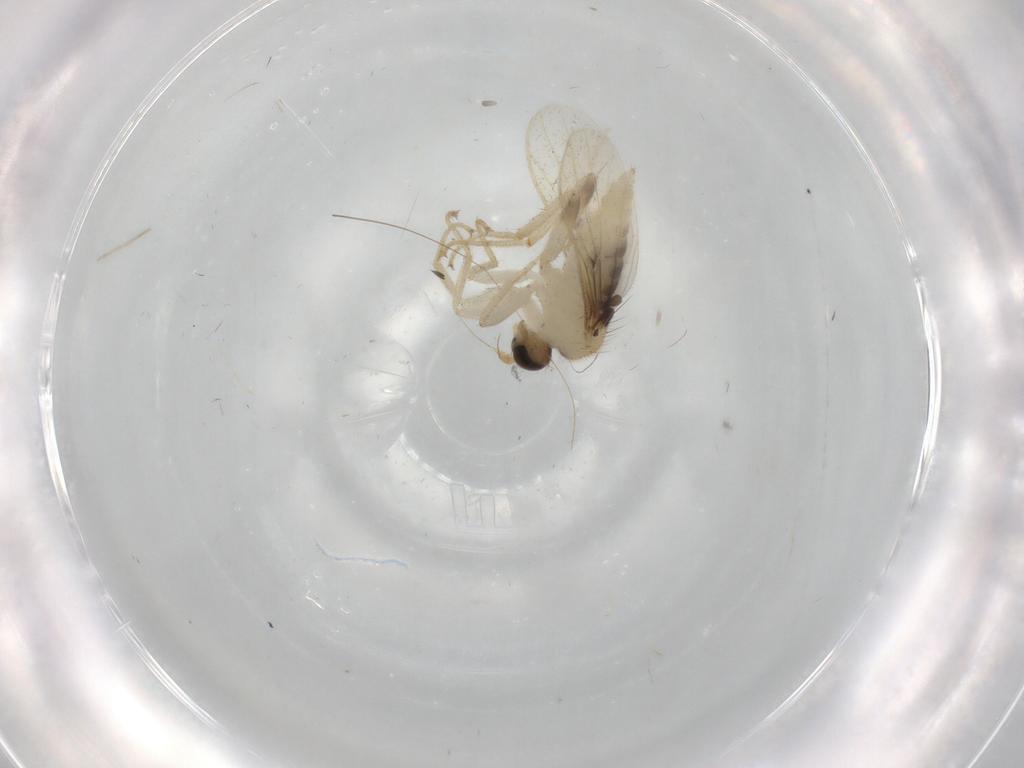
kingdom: Animalia
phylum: Arthropoda
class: Insecta
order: Diptera
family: Hybotidae
